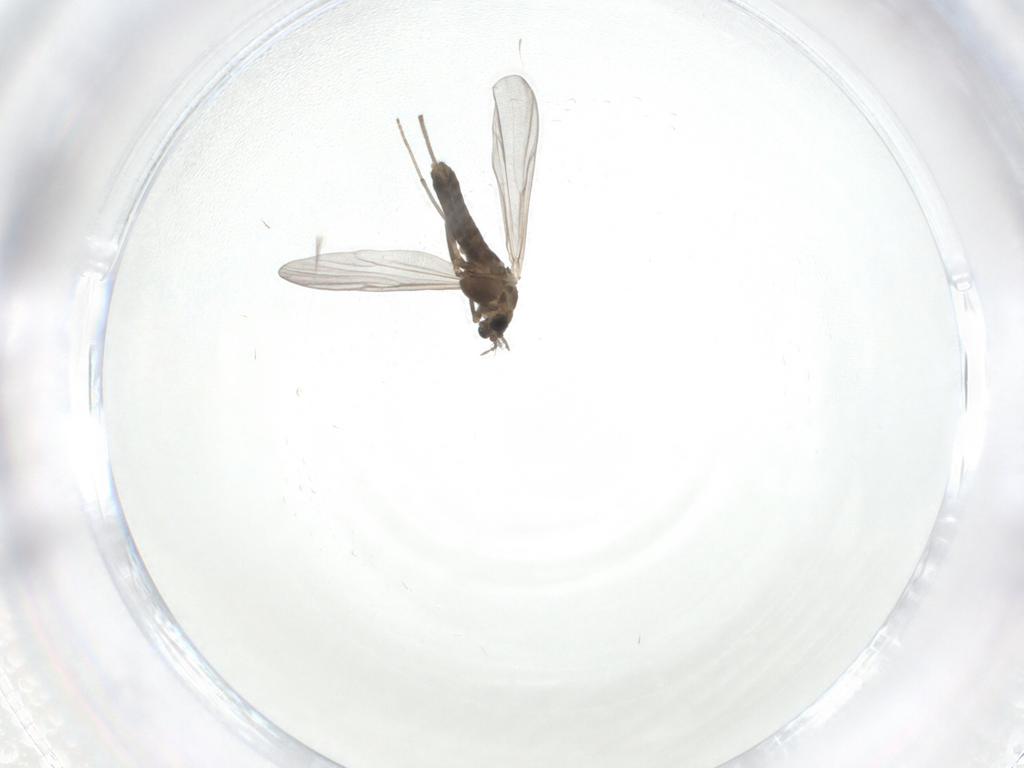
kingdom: Animalia
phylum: Arthropoda
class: Insecta
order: Diptera
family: Chironomidae
